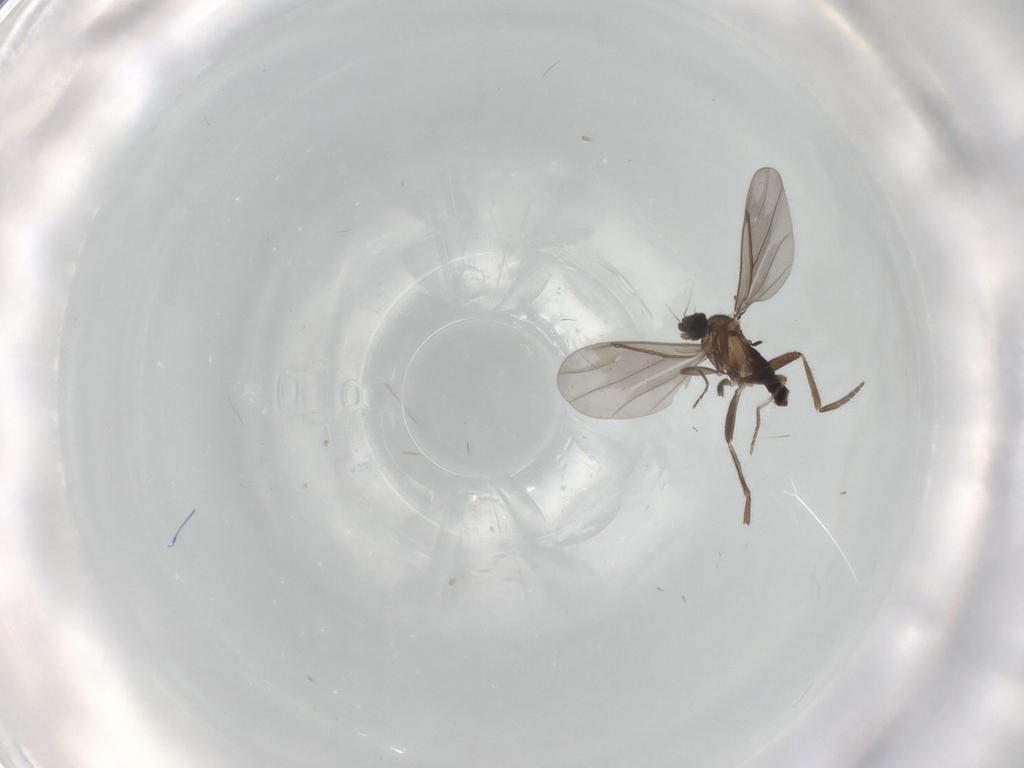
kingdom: Animalia
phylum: Arthropoda
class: Insecta
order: Diptera
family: Phoridae
